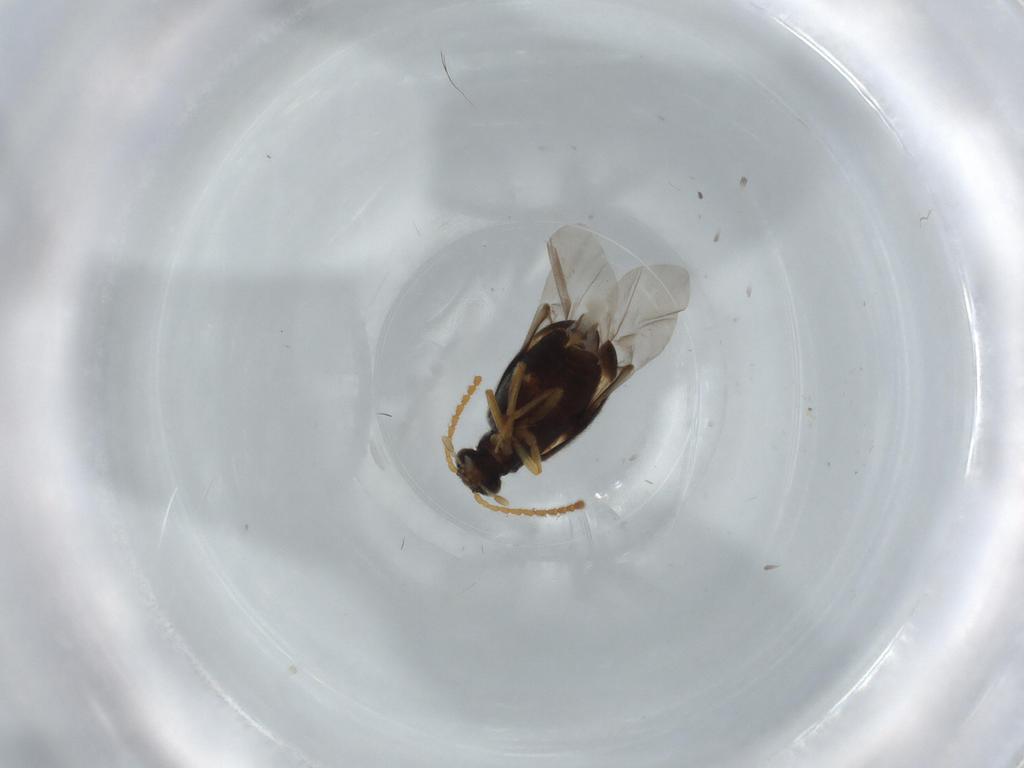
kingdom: Animalia
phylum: Arthropoda
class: Insecta
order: Coleoptera
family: Aderidae
